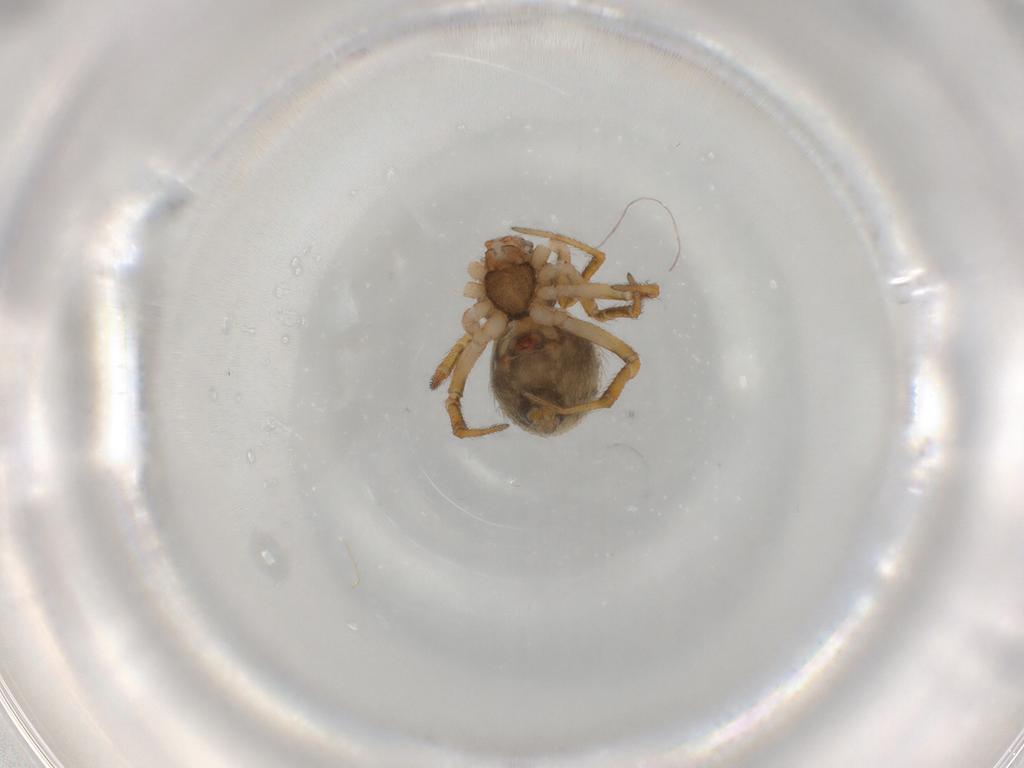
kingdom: Animalia
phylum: Arthropoda
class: Arachnida
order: Araneae
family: Theridiidae
